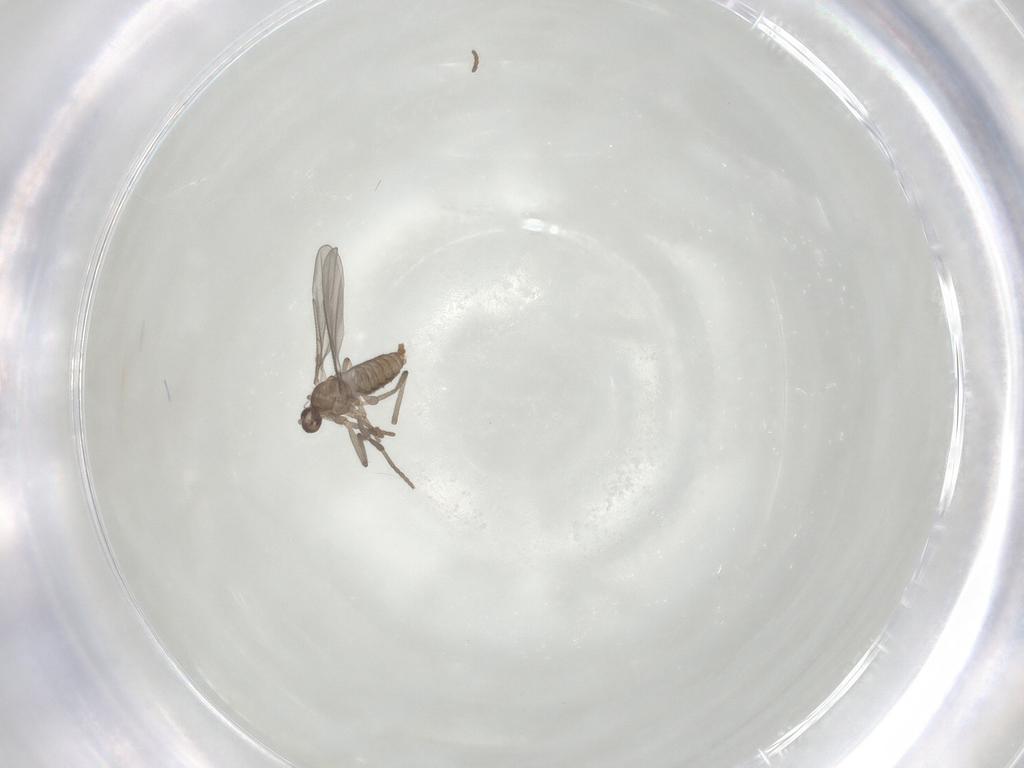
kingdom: Animalia
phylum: Arthropoda
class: Insecta
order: Diptera
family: Cecidomyiidae
